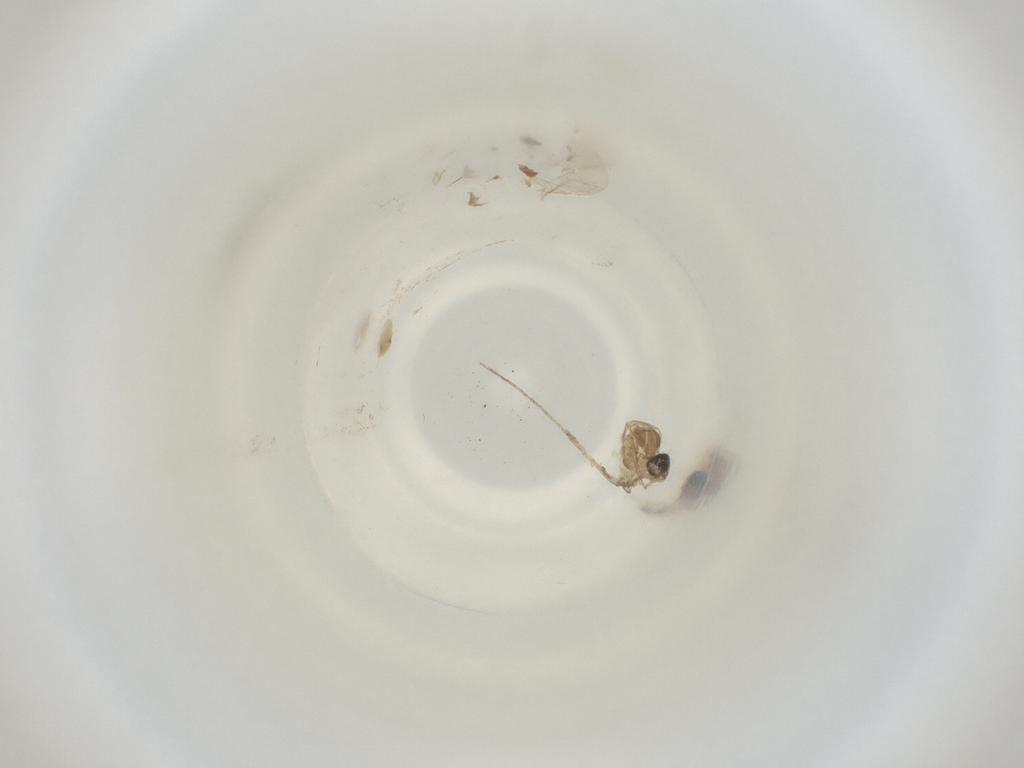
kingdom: Animalia
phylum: Arthropoda
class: Insecta
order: Diptera
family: Cecidomyiidae
